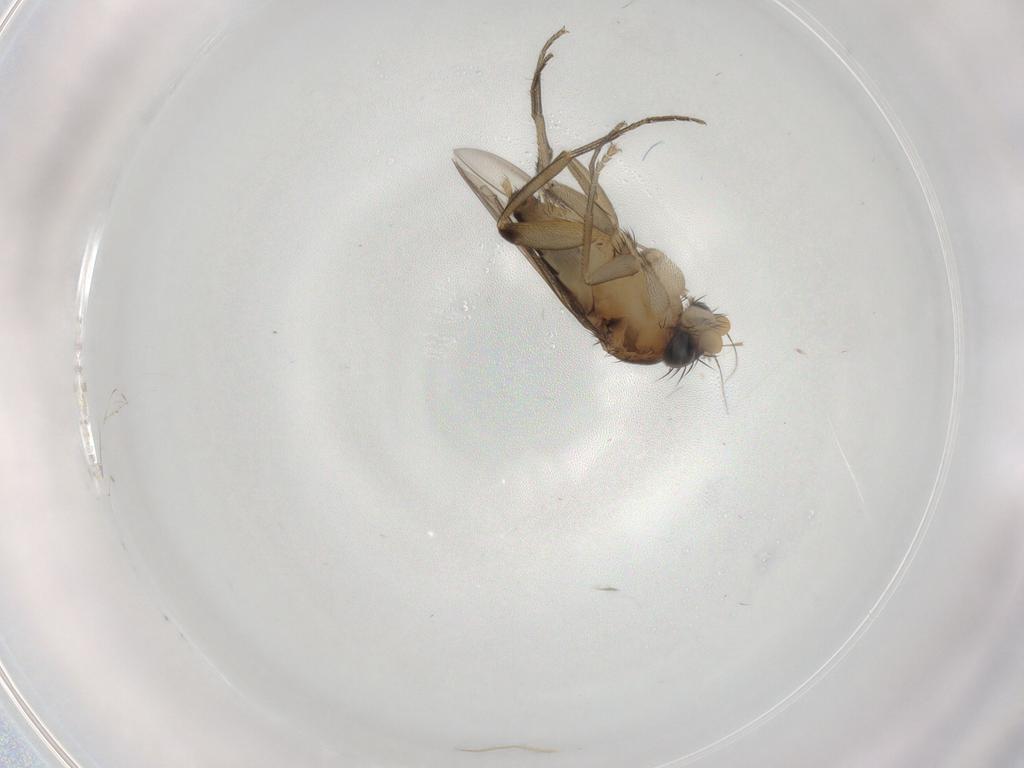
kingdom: Animalia
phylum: Arthropoda
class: Insecta
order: Diptera
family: Phoridae
